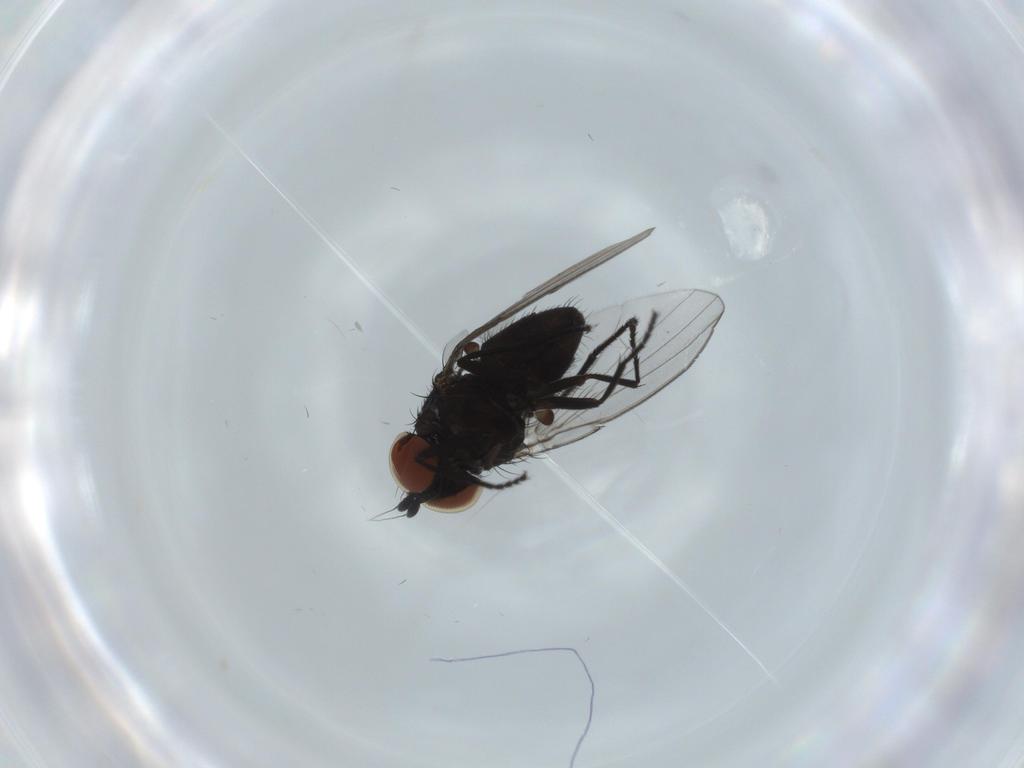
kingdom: Animalia
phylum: Arthropoda
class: Insecta
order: Diptera
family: Milichiidae
